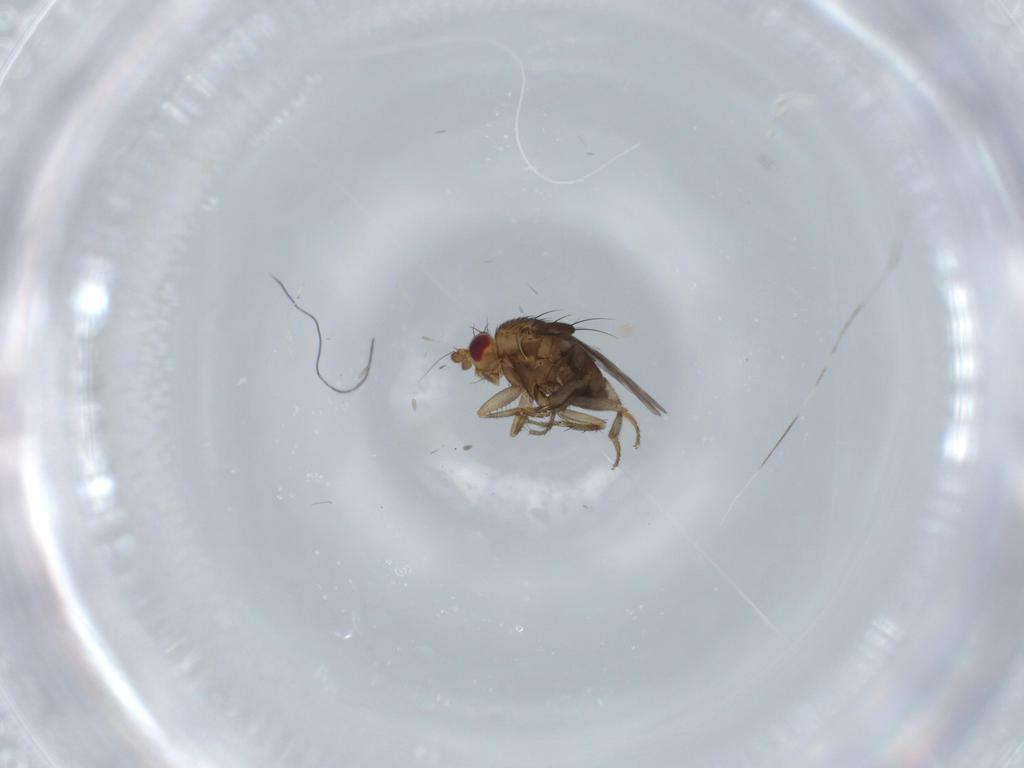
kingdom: Animalia
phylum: Arthropoda
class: Insecta
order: Diptera
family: Sphaeroceridae
